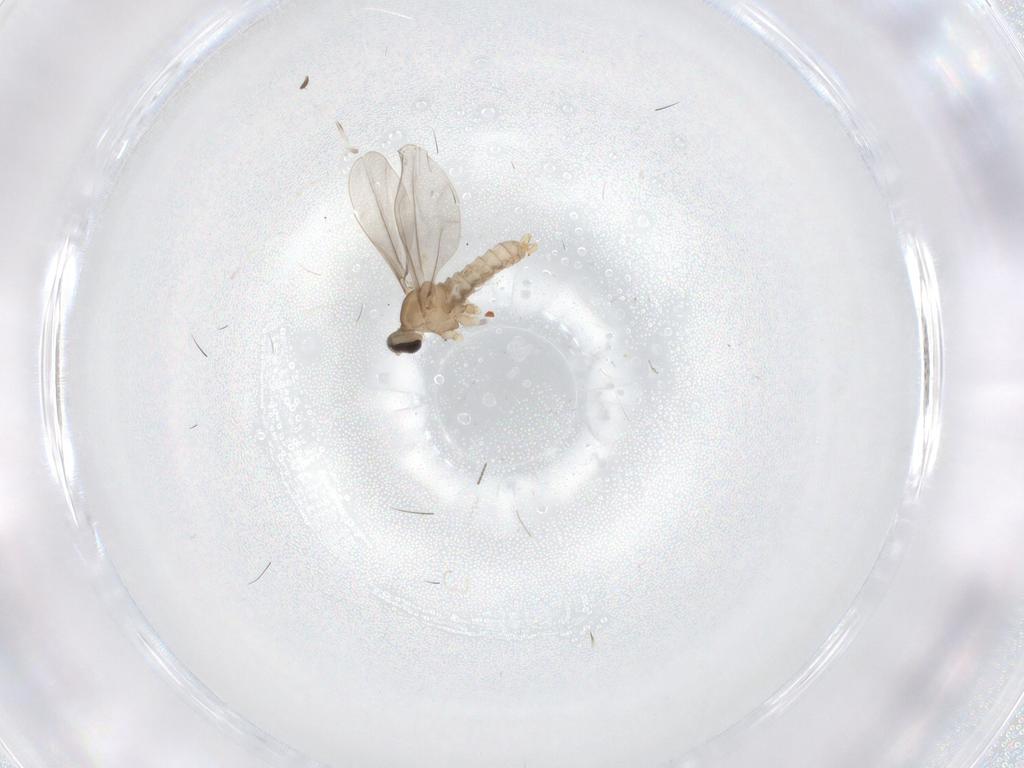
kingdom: Animalia
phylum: Arthropoda
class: Insecta
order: Diptera
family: Cecidomyiidae
